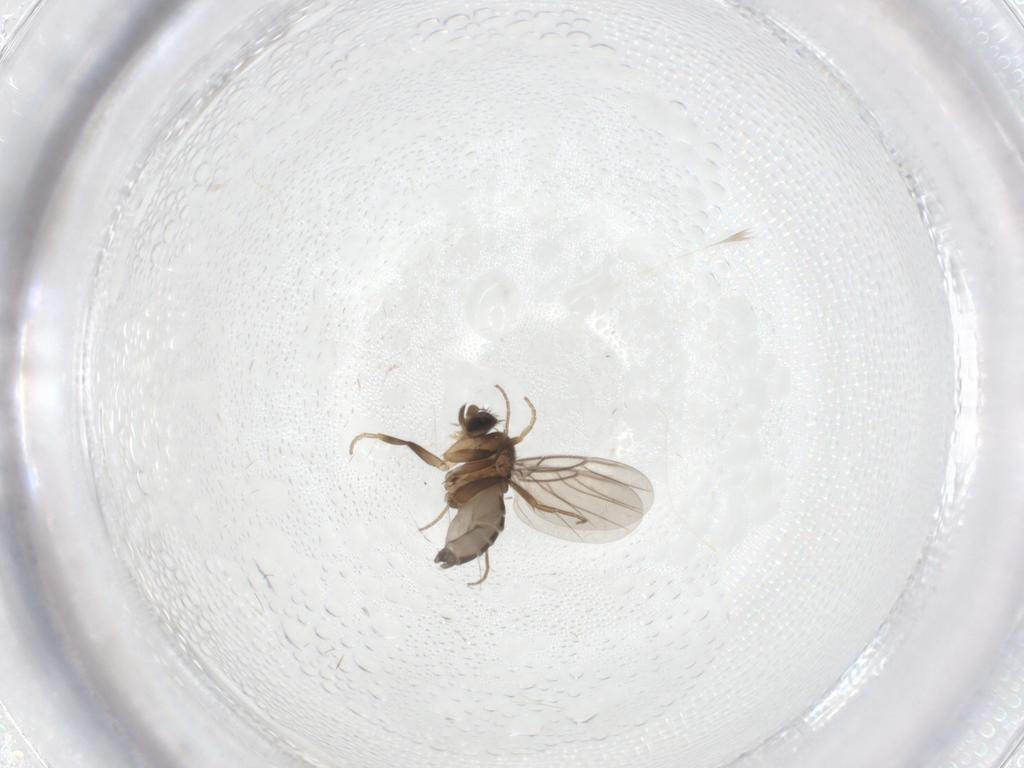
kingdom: Animalia
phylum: Arthropoda
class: Insecta
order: Diptera
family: Phoridae
